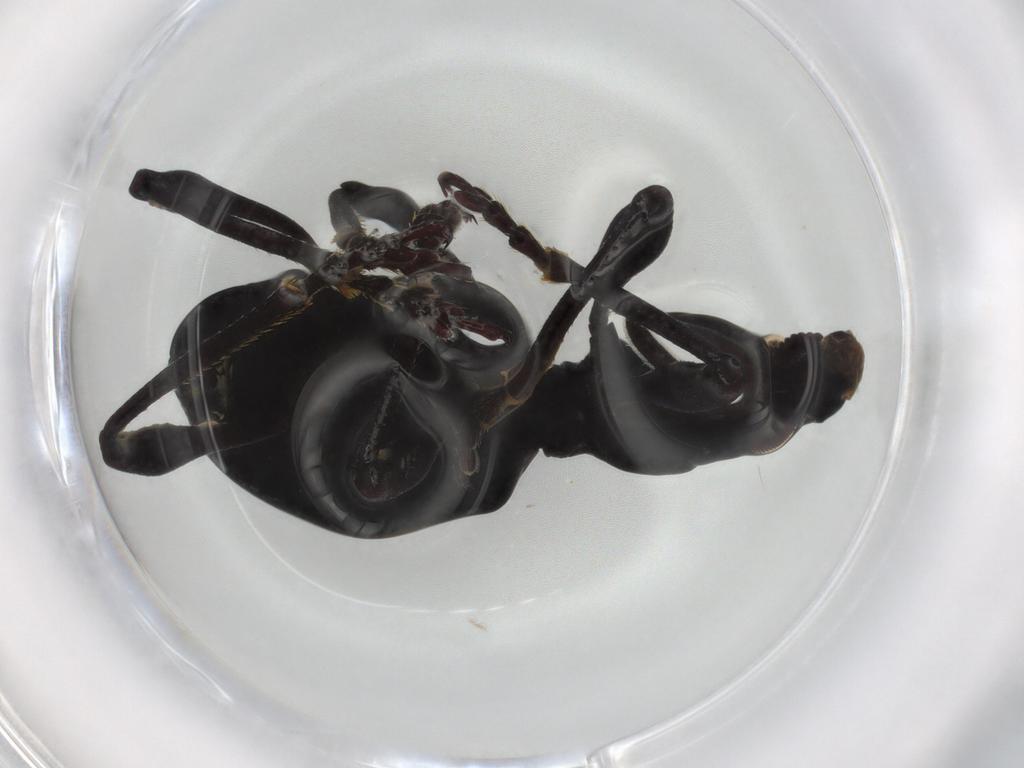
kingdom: Animalia
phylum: Arthropoda
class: Insecta
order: Coleoptera
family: Brentidae
